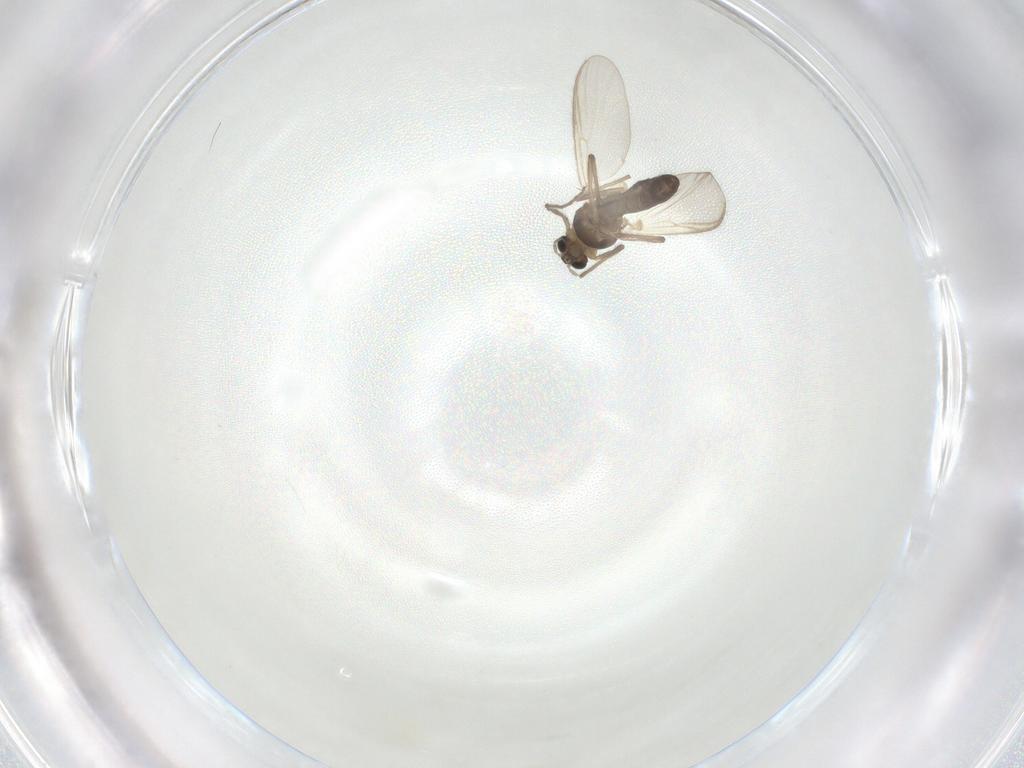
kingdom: Animalia
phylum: Arthropoda
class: Insecta
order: Diptera
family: Chironomidae
